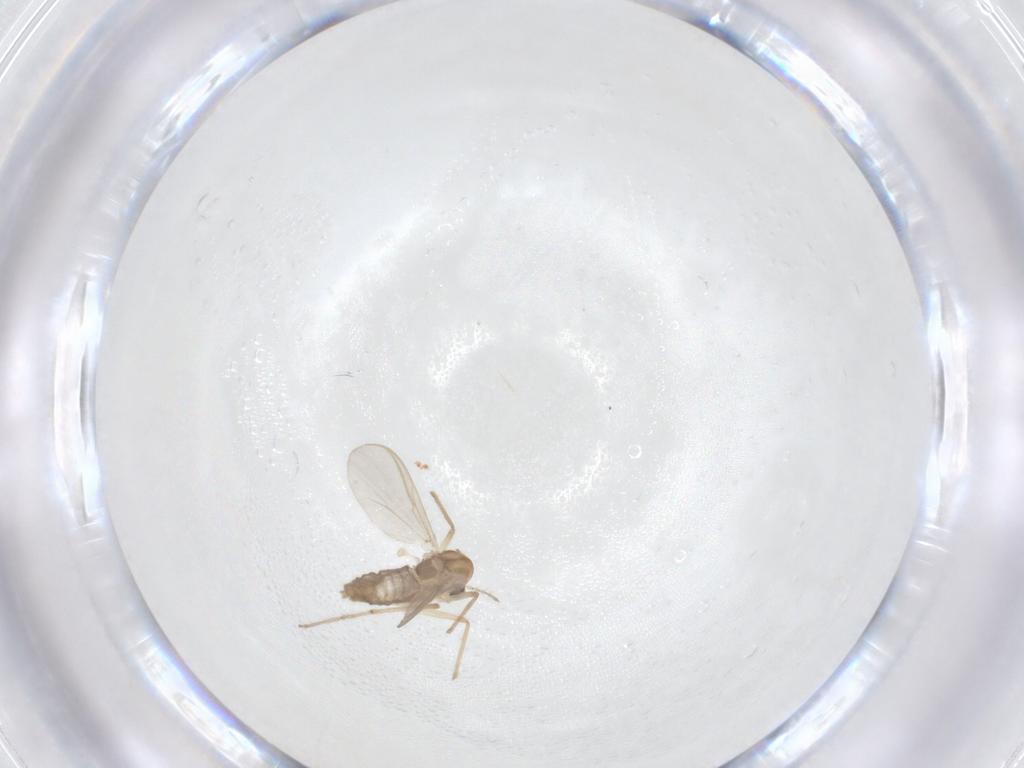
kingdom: Animalia
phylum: Arthropoda
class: Insecta
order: Diptera
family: Chironomidae
